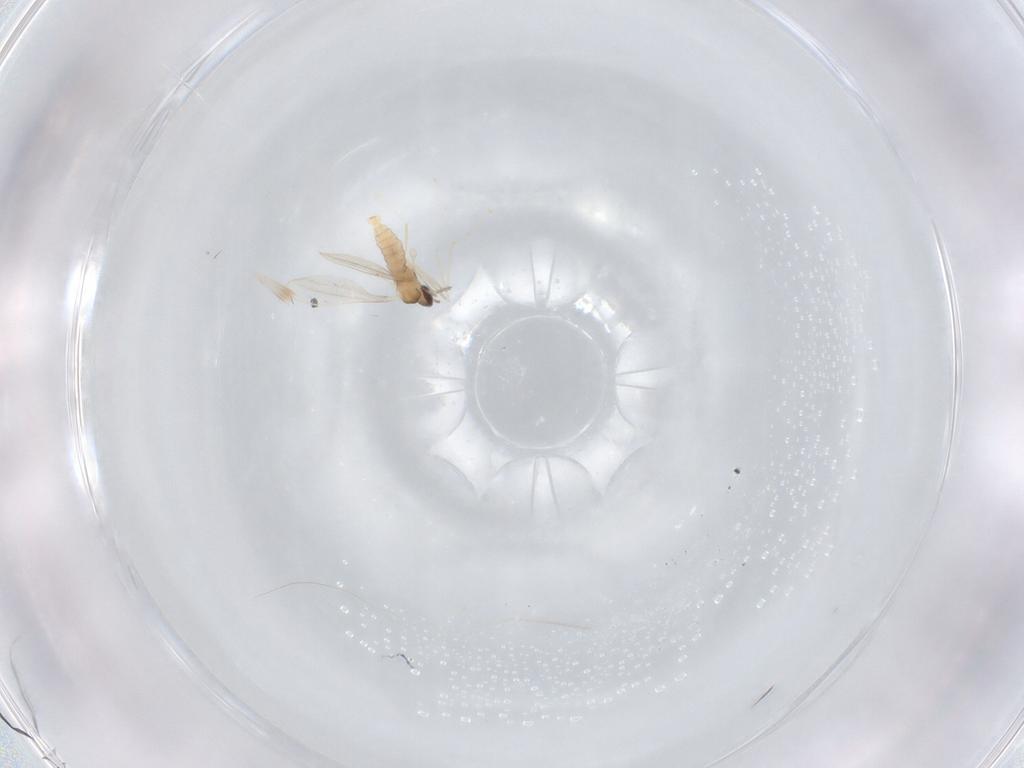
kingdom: Animalia
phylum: Arthropoda
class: Insecta
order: Diptera
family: Cecidomyiidae
